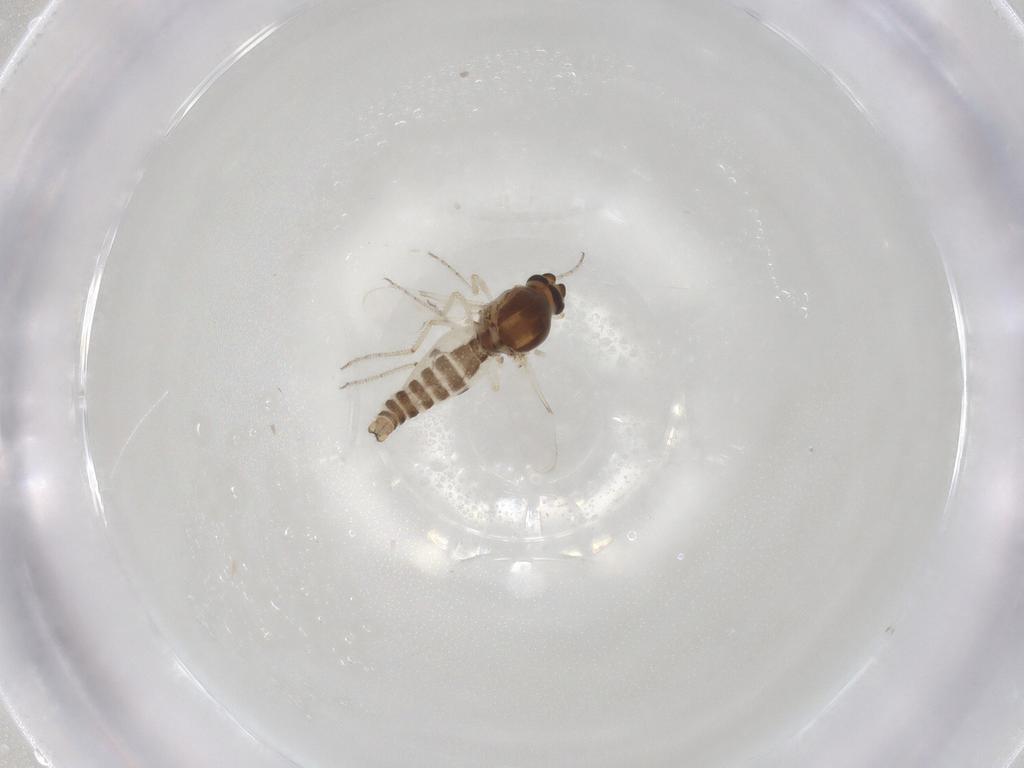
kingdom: Animalia
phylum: Arthropoda
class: Insecta
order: Diptera
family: Ceratopogonidae
